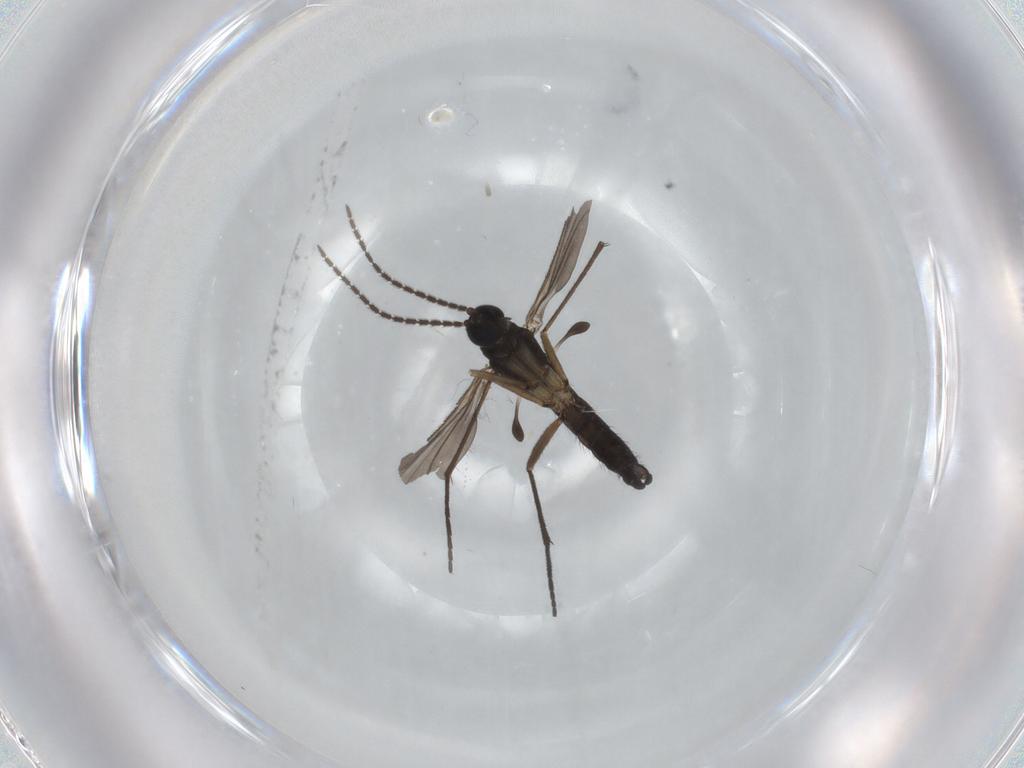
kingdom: Animalia
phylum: Arthropoda
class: Insecta
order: Diptera
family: Sciaridae
